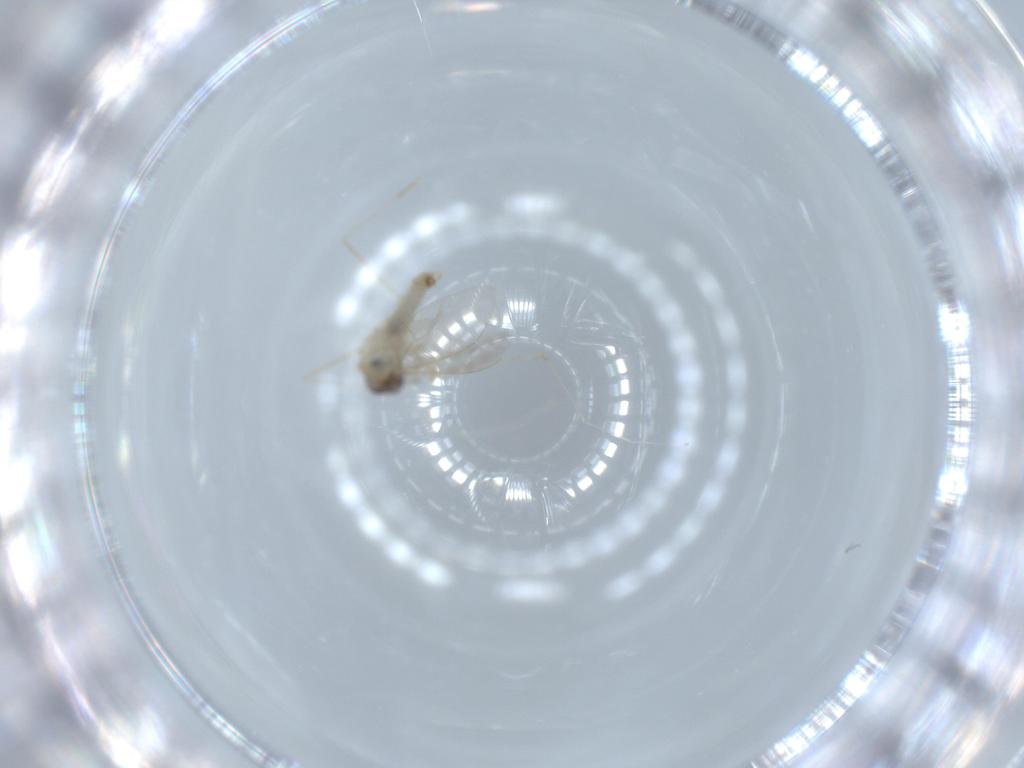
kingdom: Animalia
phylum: Arthropoda
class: Insecta
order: Diptera
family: Cecidomyiidae
